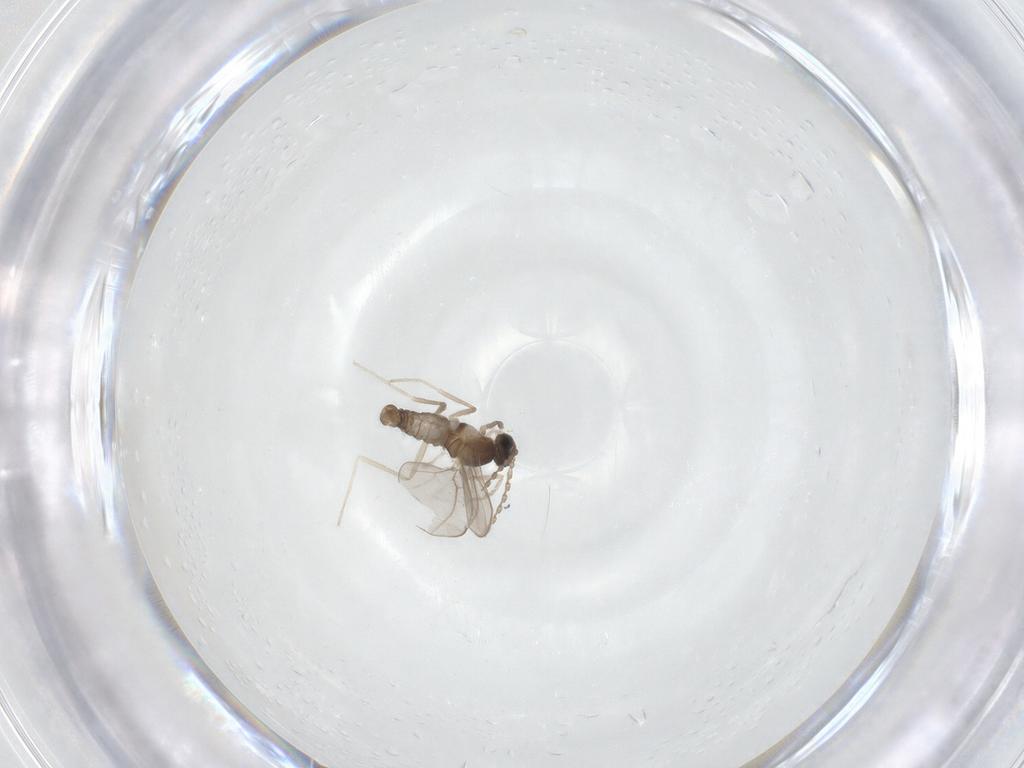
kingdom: Animalia
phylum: Arthropoda
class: Insecta
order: Diptera
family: Cecidomyiidae
